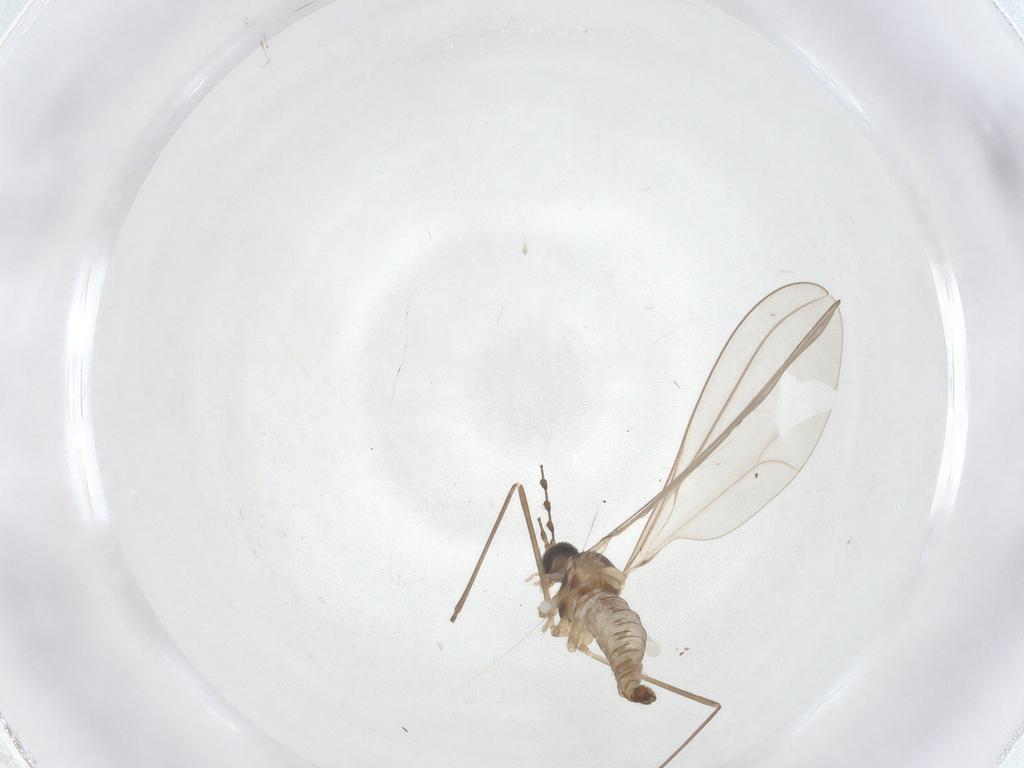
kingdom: Animalia
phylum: Arthropoda
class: Insecta
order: Diptera
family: Cecidomyiidae
